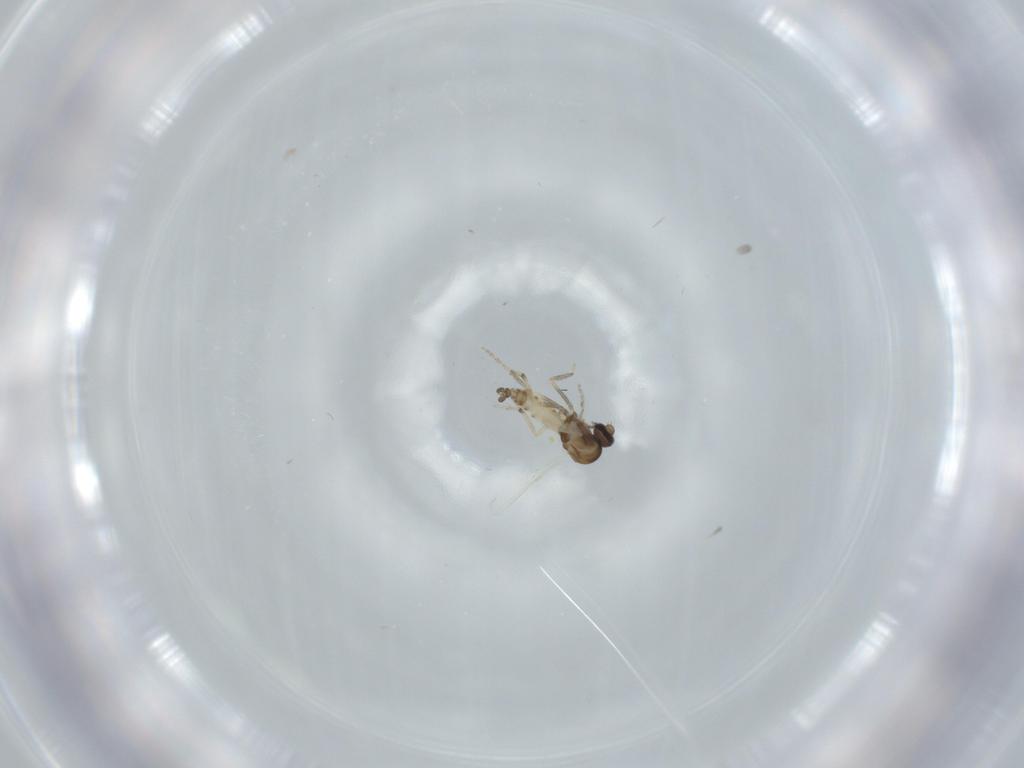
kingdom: Animalia
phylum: Arthropoda
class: Insecta
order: Diptera
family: Ceratopogonidae
